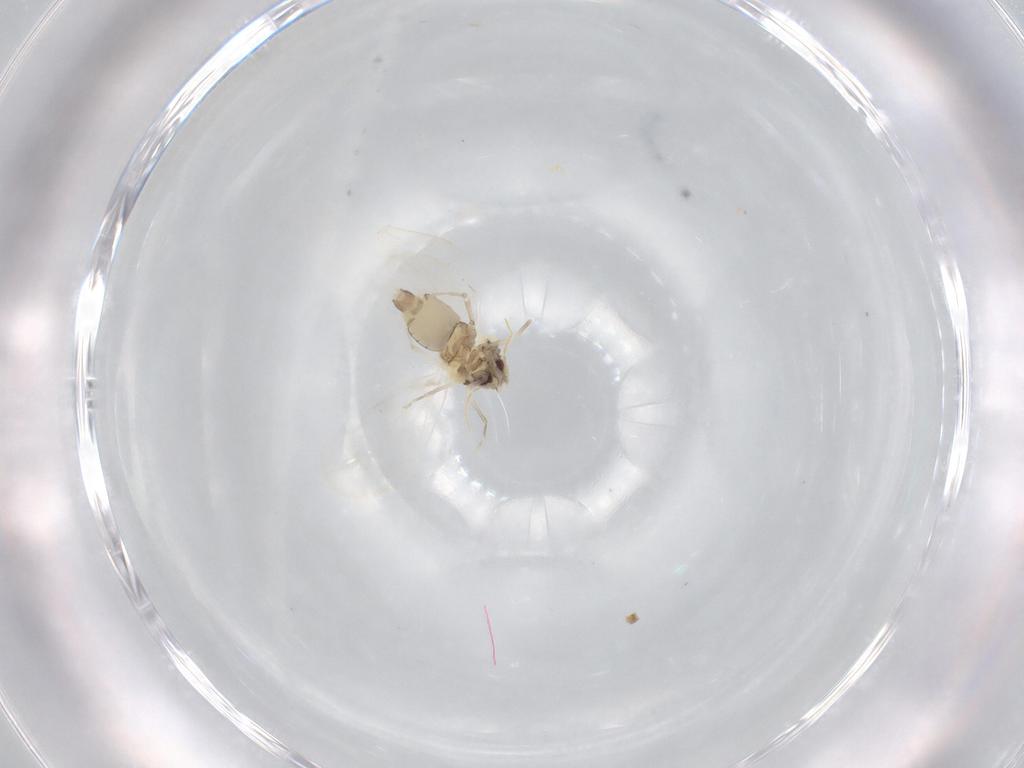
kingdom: Animalia
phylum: Arthropoda
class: Insecta
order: Hemiptera
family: Aleyrodidae
